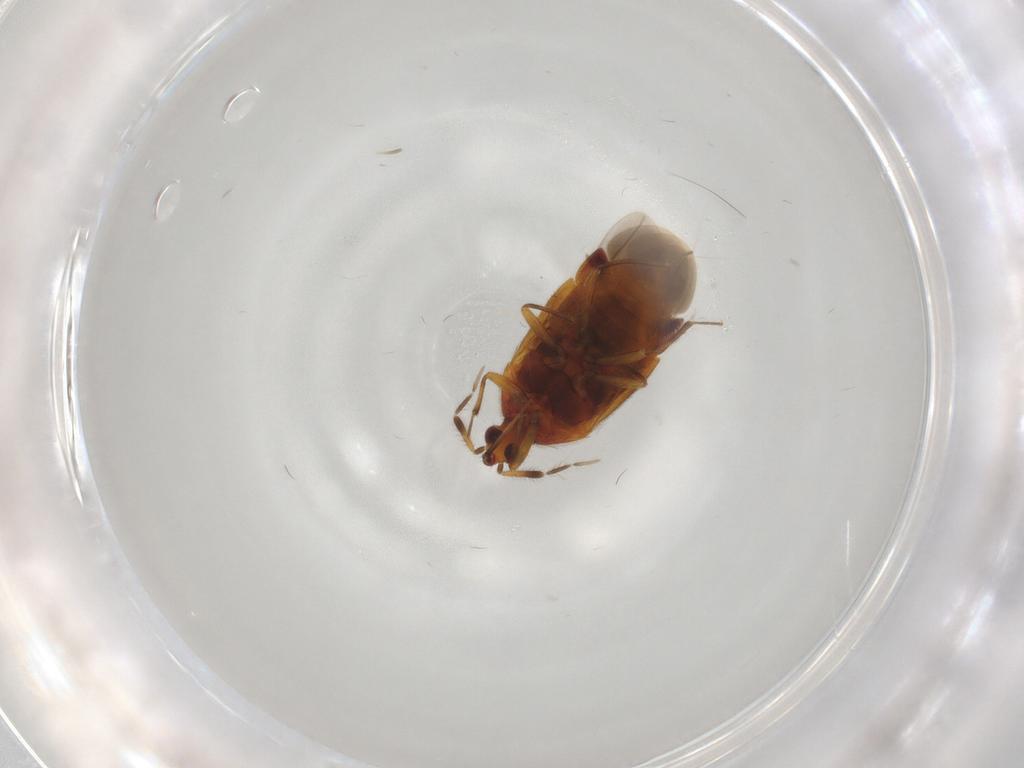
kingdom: Animalia
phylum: Arthropoda
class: Insecta
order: Hemiptera
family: Anthocoridae
